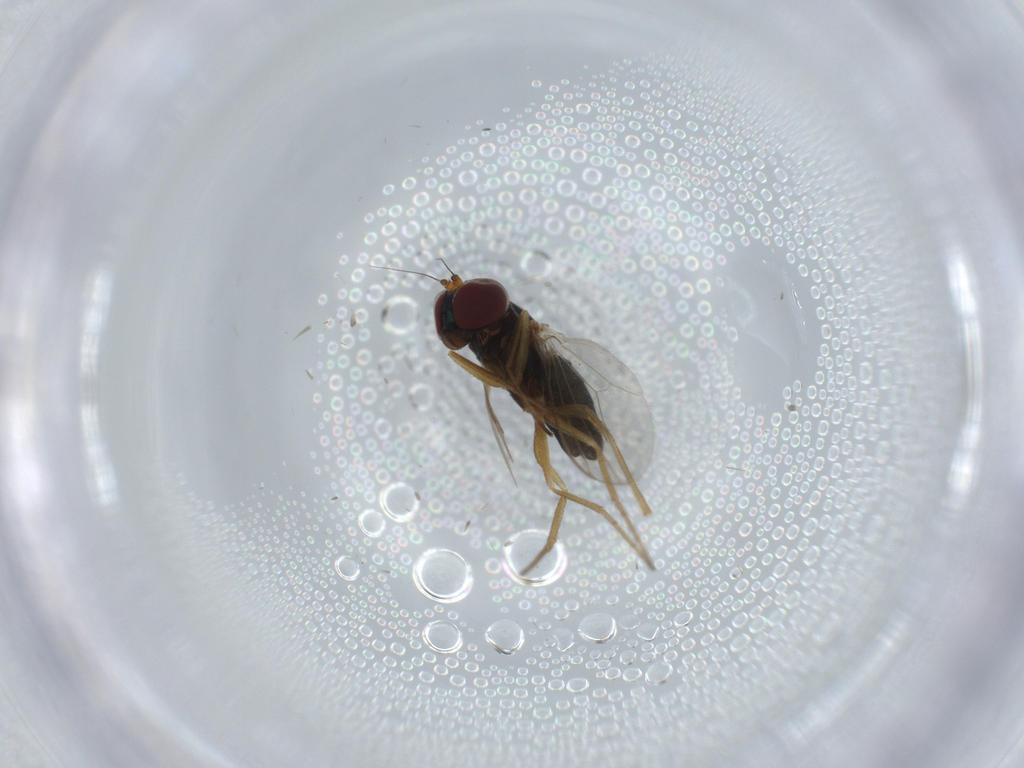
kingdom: Animalia
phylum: Arthropoda
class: Insecta
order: Diptera
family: Dolichopodidae
